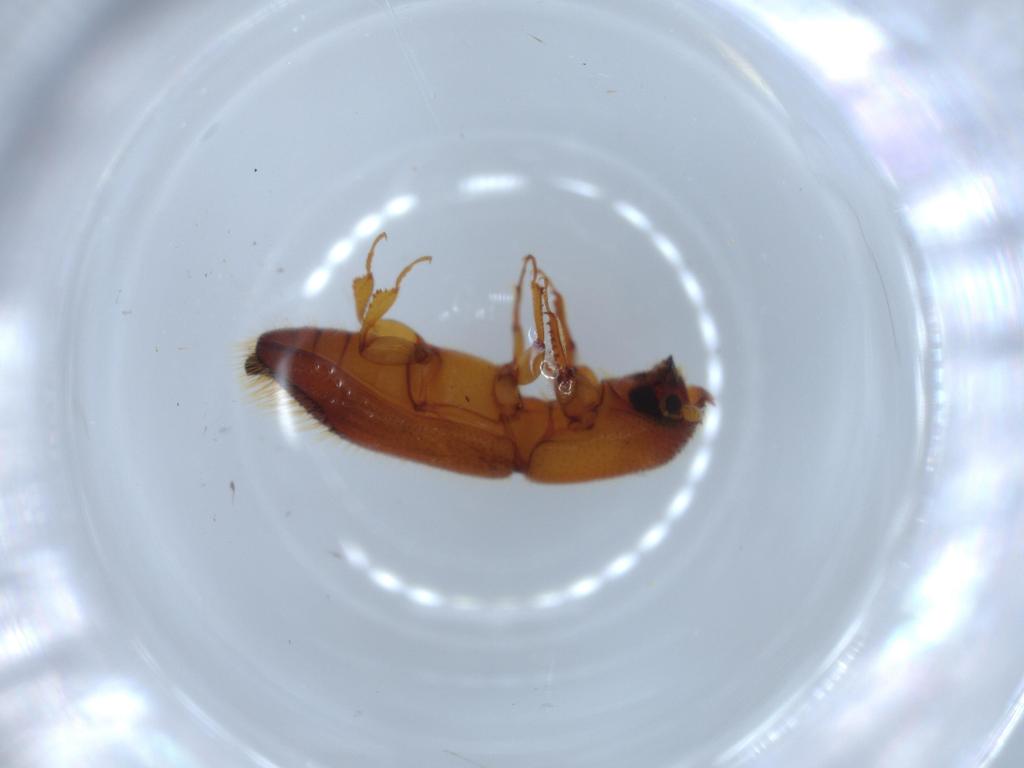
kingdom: Animalia
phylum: Arthropoda
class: Insecta
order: Coleoptera
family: Curculionidae
